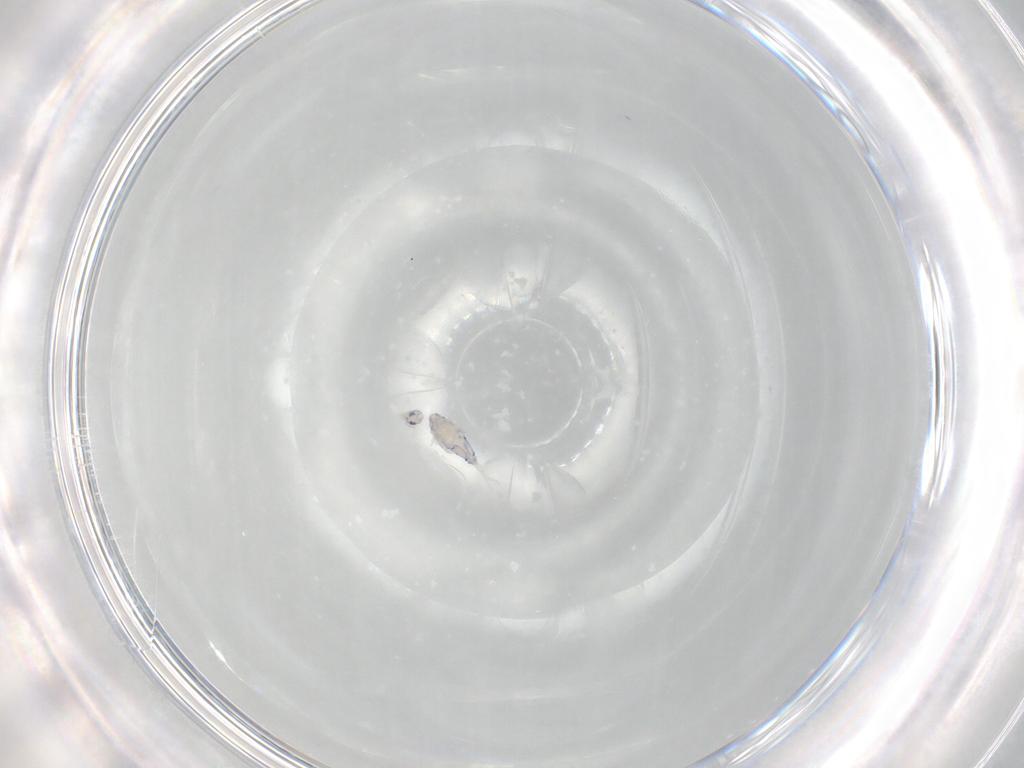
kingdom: Animalia
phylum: Arthropoda
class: Collembola
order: Entomobryomorpha
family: Entomobryidae
